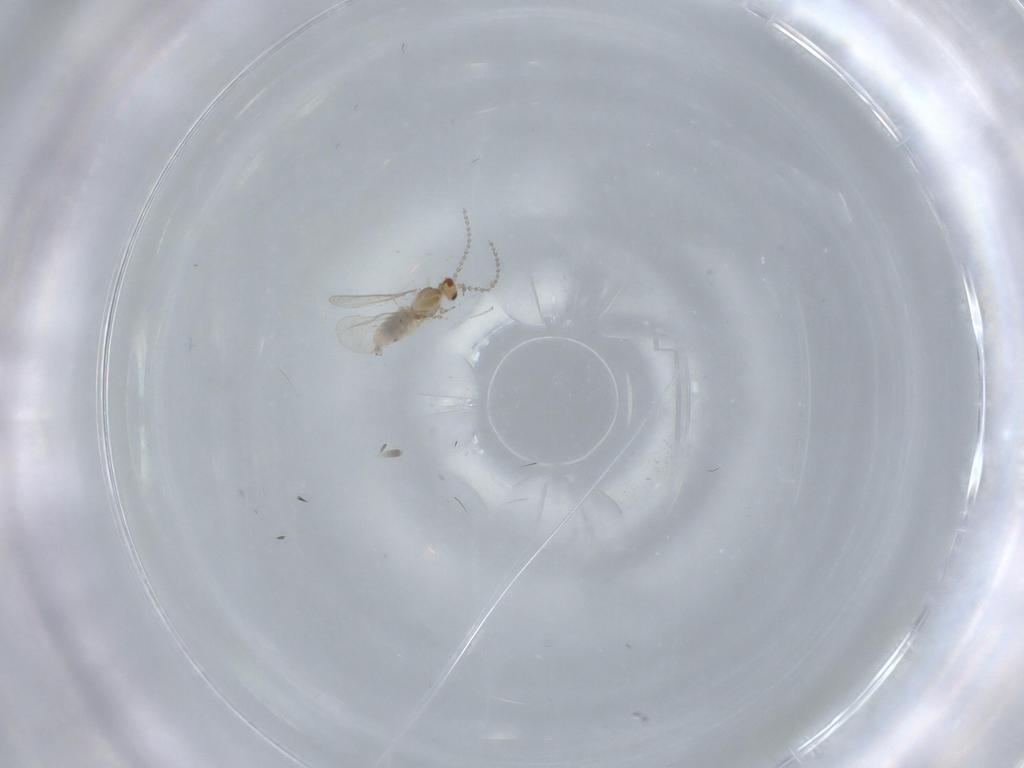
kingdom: Animalia
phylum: Arthropoda
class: Insecta
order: Diptera
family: Cecidomyiidae
